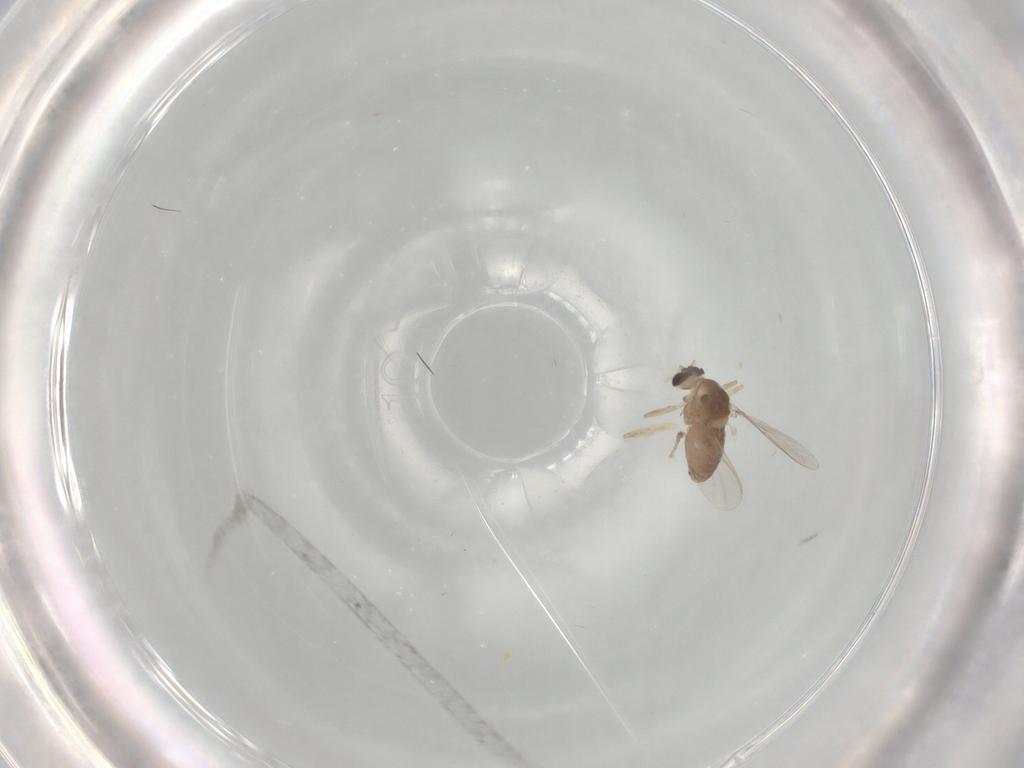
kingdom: Animalia
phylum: Arthropoda
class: Insecta
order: Diptera
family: Chironomidae
